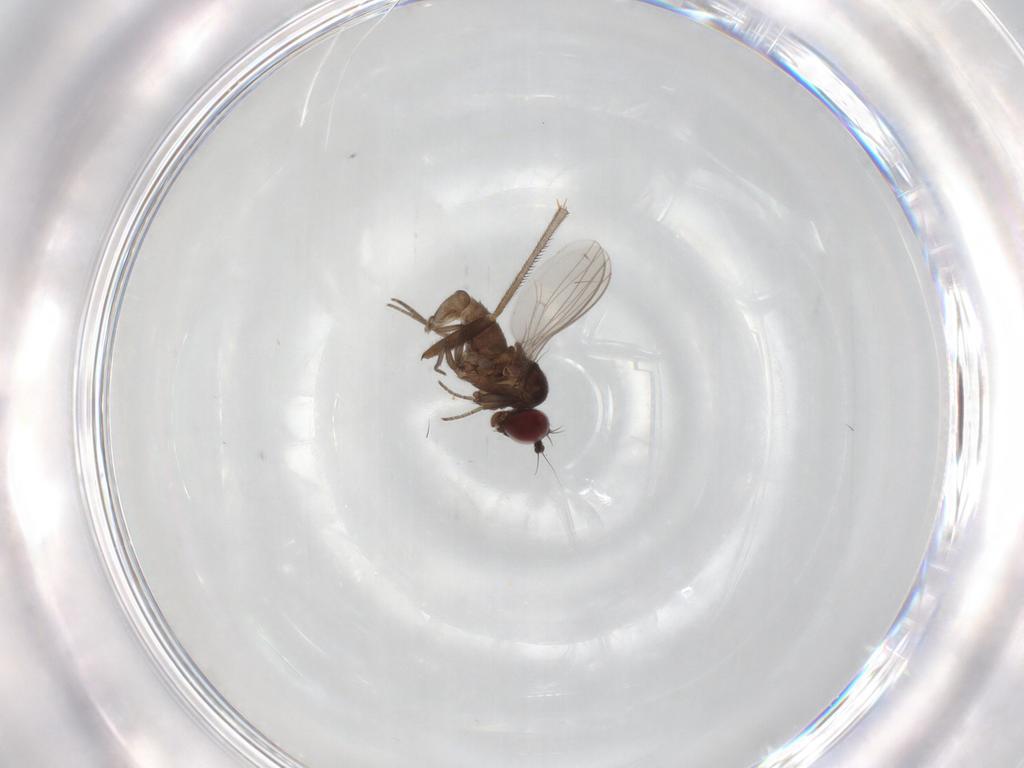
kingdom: Animalia
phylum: Arthropoda
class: Insecta
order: Diptera
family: Dolichopodidae
